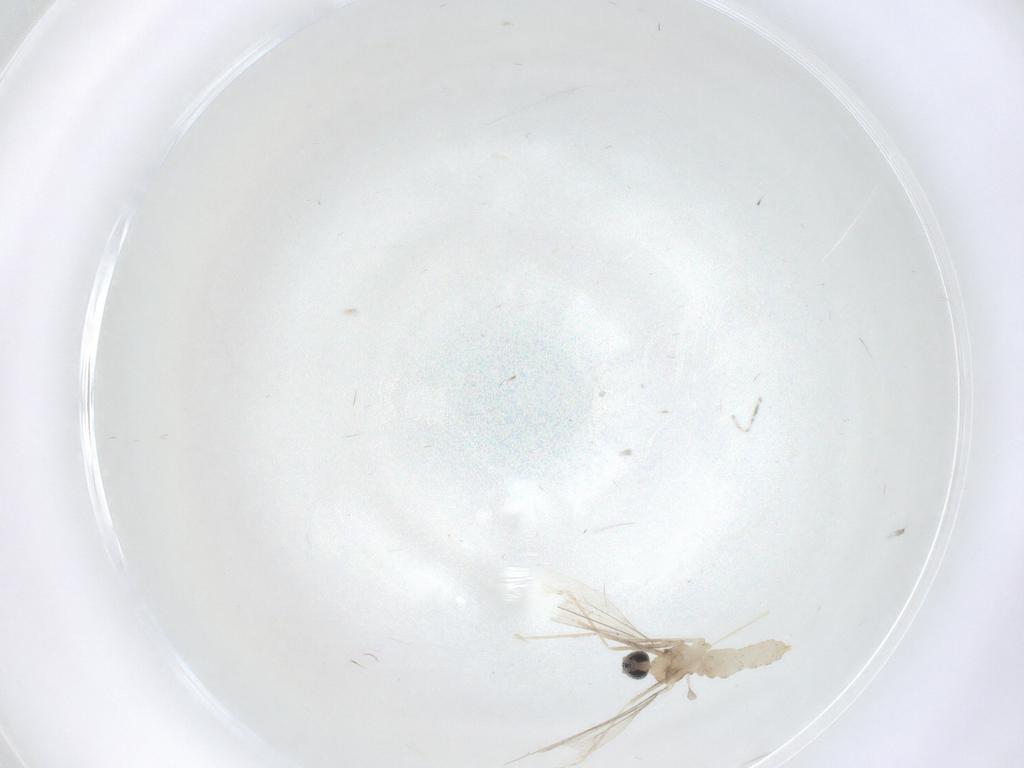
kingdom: Animalia
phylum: Arthropoda
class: Insecta
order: Diptera
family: Cecidomyiidae
